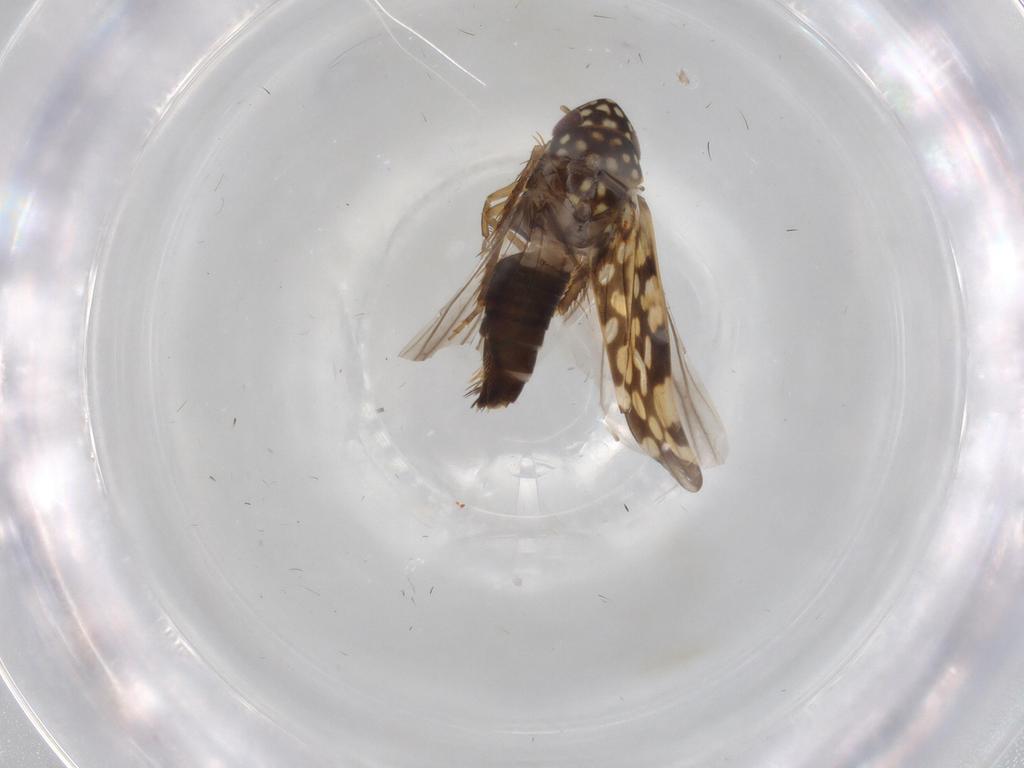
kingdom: Animalia
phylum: Arthropoda
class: Insecta
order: Hemiptera
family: Cicadellidae
